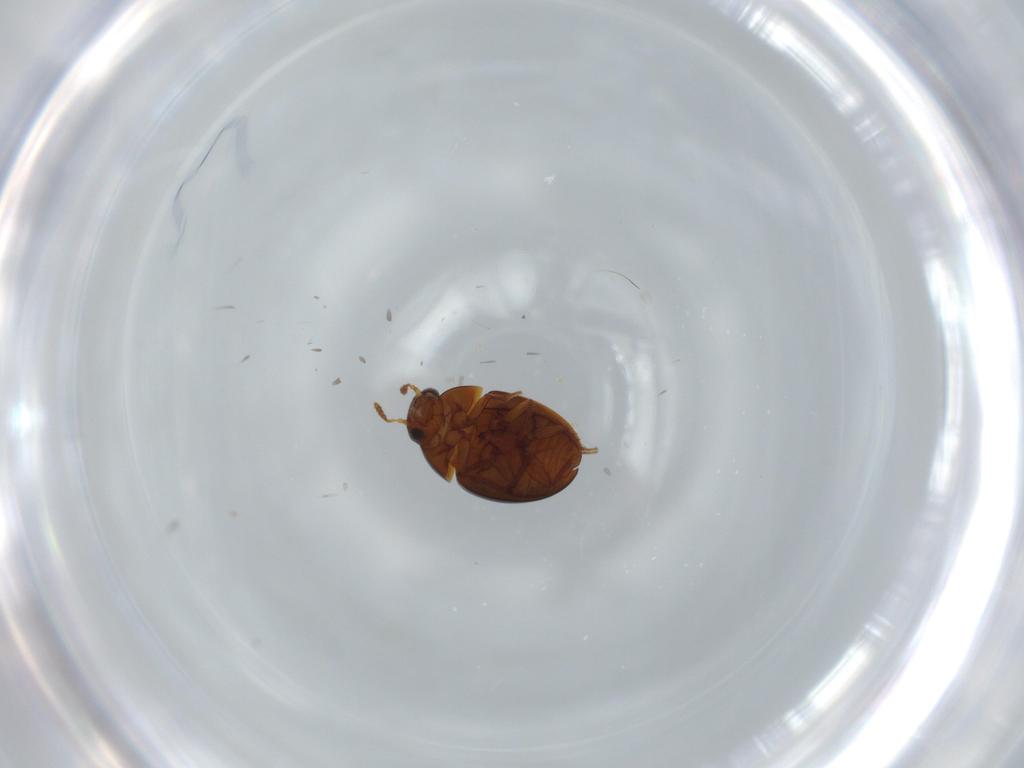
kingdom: Animalia
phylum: Arthropoda
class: Insecta
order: Coleoptera
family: Leiodidae
